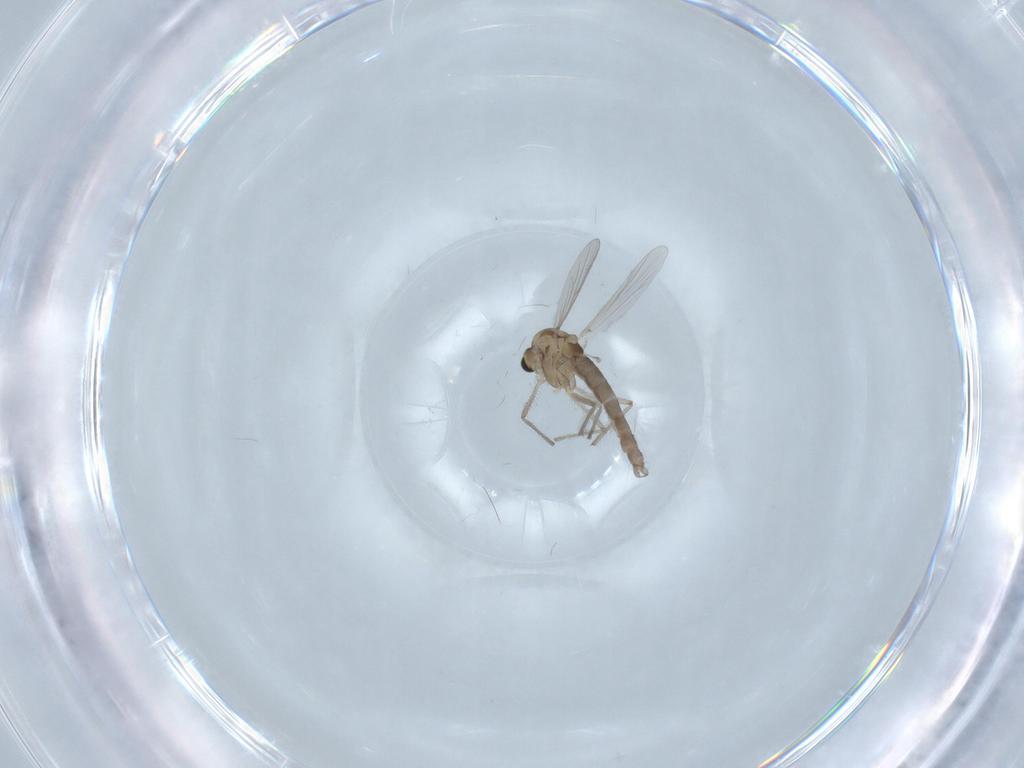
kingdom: Animalia
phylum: Arthropoda
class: Insecta
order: Diptera
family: Chironomidae
